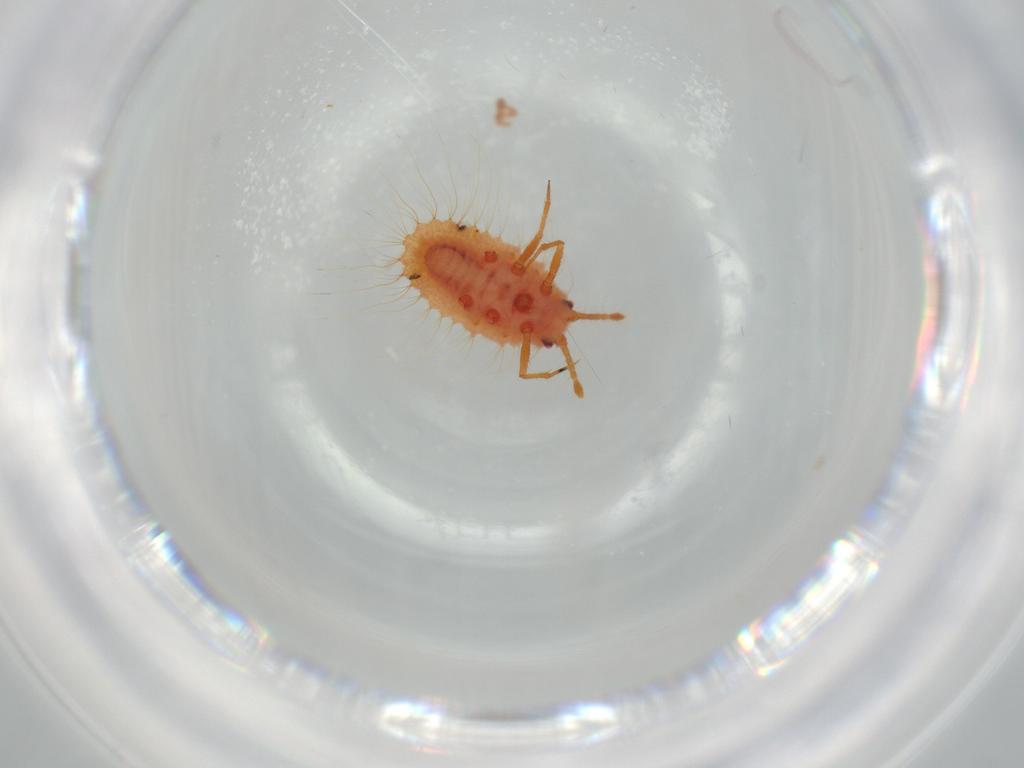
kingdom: Animalia
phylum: Arthropoda
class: Insecta
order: Hemiptera
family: Coccoidea_incertae_sedis
